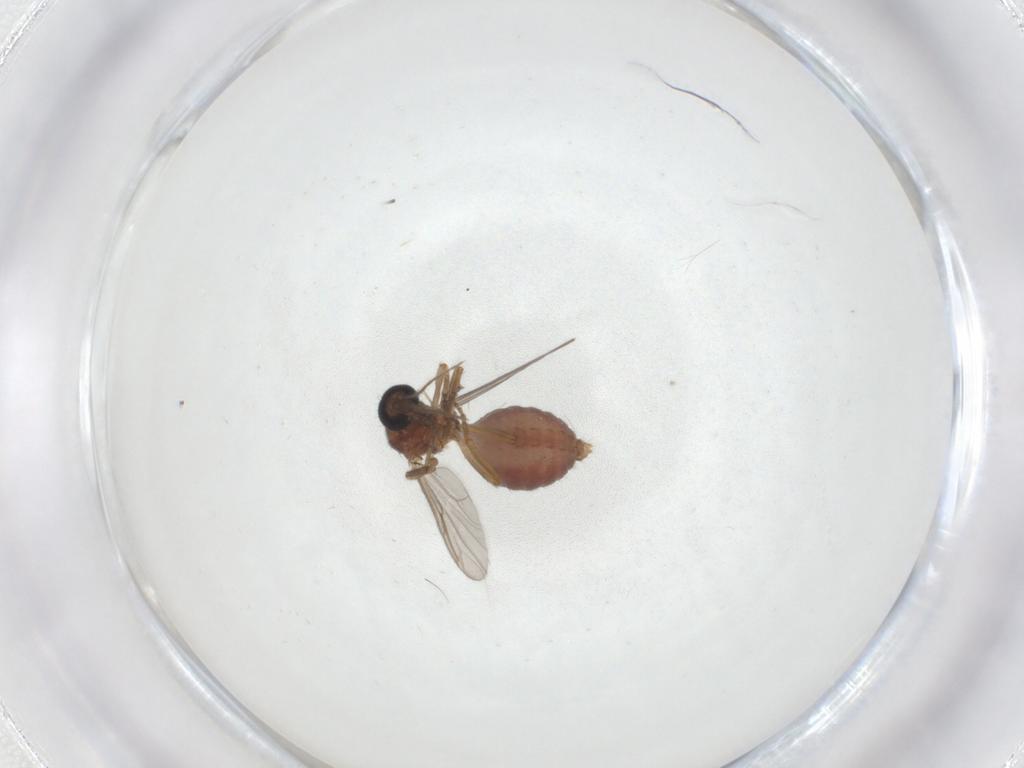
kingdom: Animalia
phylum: Arthropoda
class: Insecta
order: Diptera
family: Ceratopogonidae
